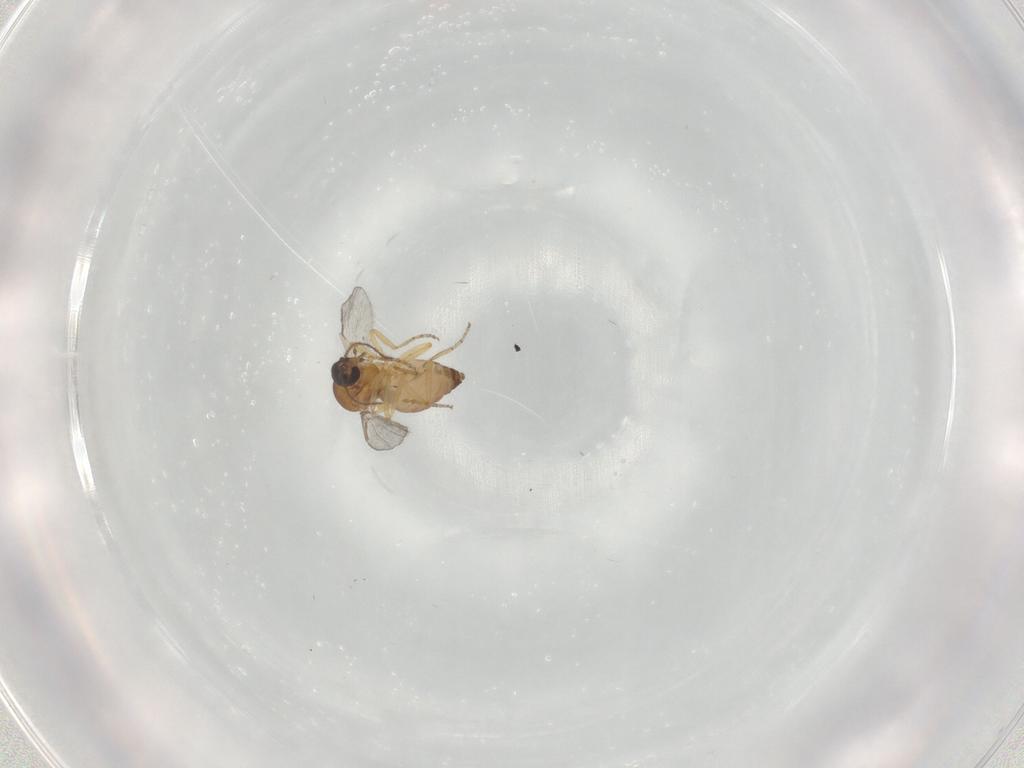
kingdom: Animalia
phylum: Arthropoda
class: Insecta
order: Diptera
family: Ceratopogonidae
